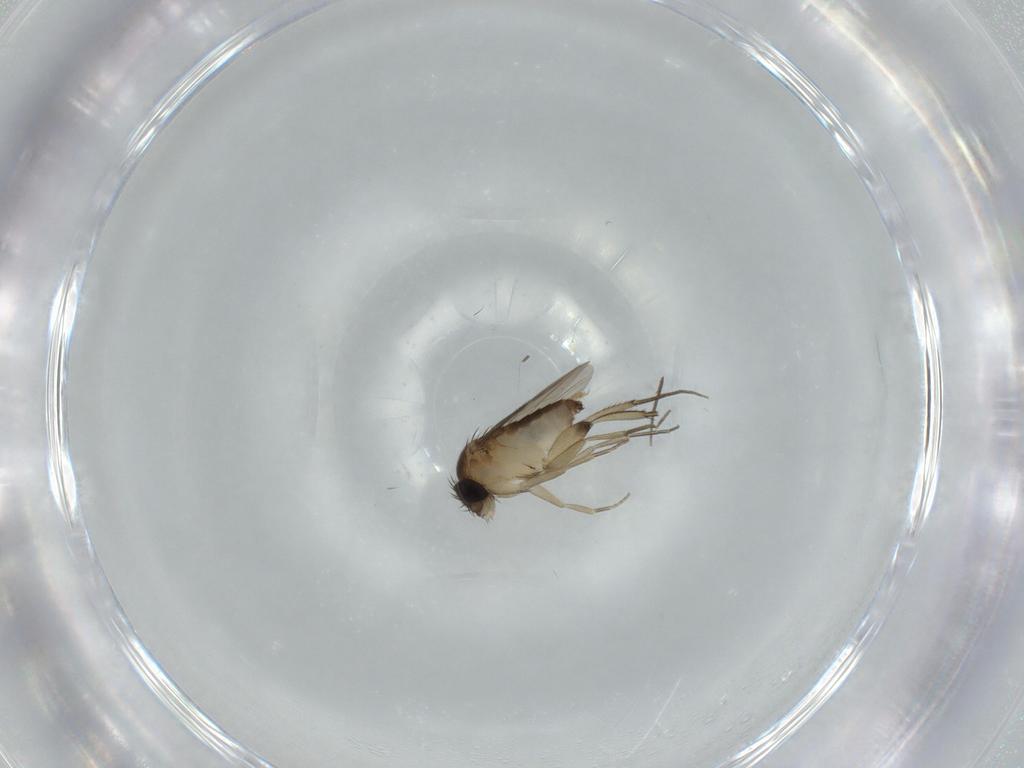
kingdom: Animalia
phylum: Arthropoda
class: Insecta
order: Diptera
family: Phoridae
